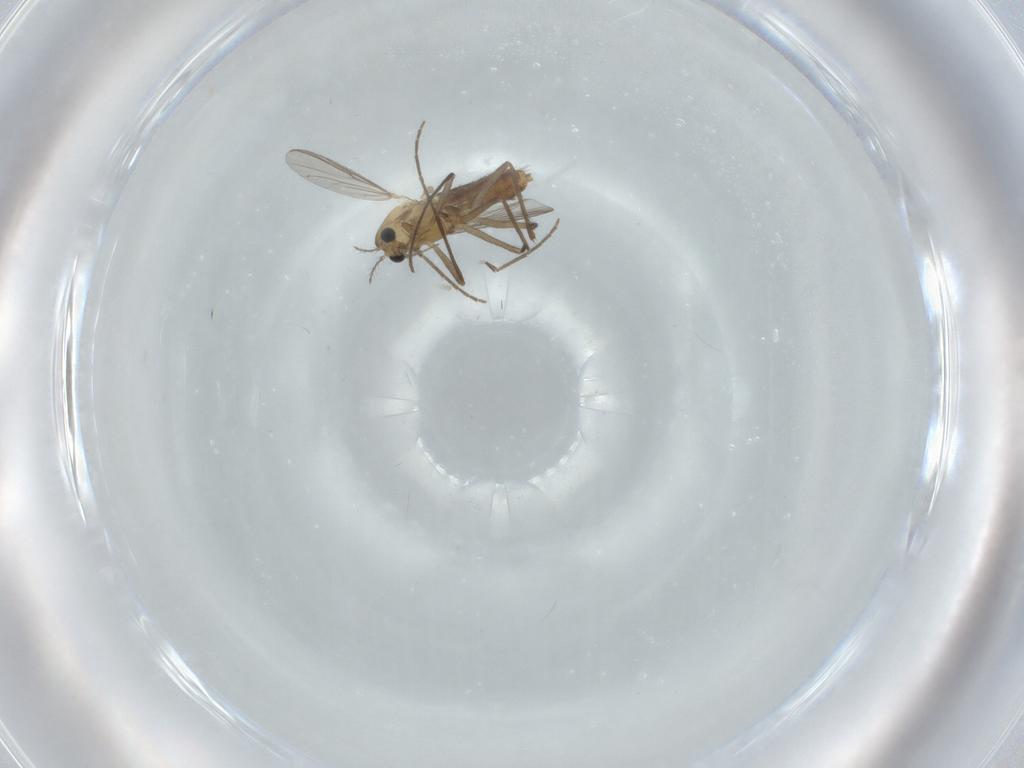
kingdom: Animalia
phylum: Arthropoda
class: Insecta
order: Diptera
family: Chironomidae
